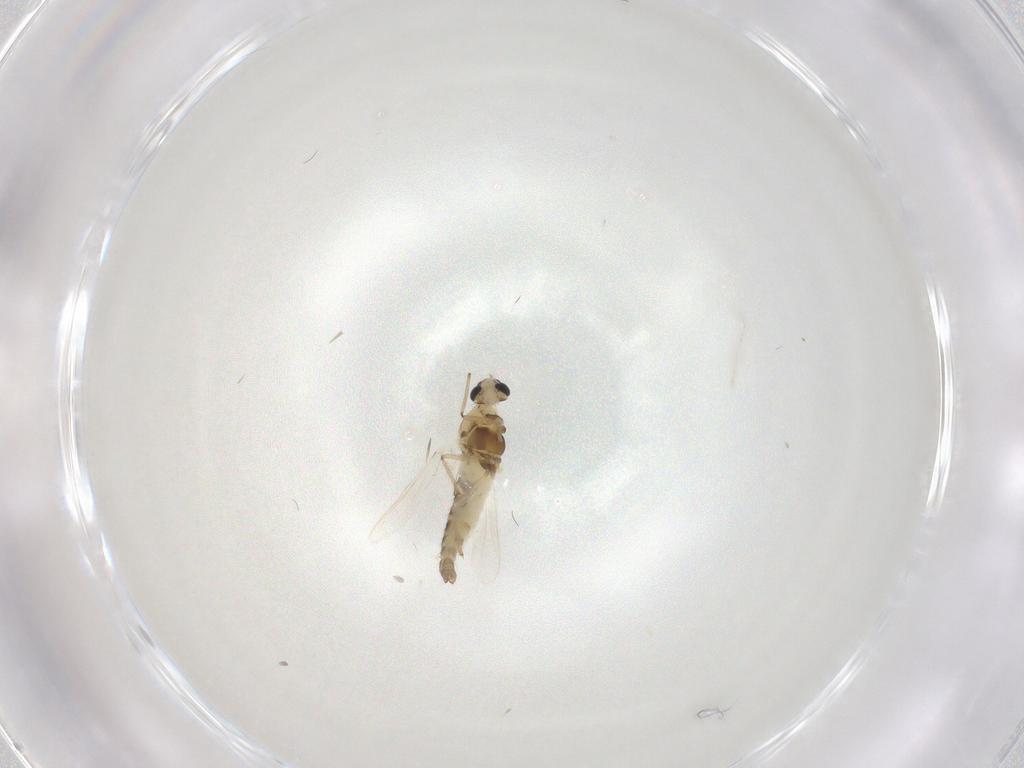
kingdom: Animalia
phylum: Arthropoda
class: Insecta
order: Diptera
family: Chironomidae
